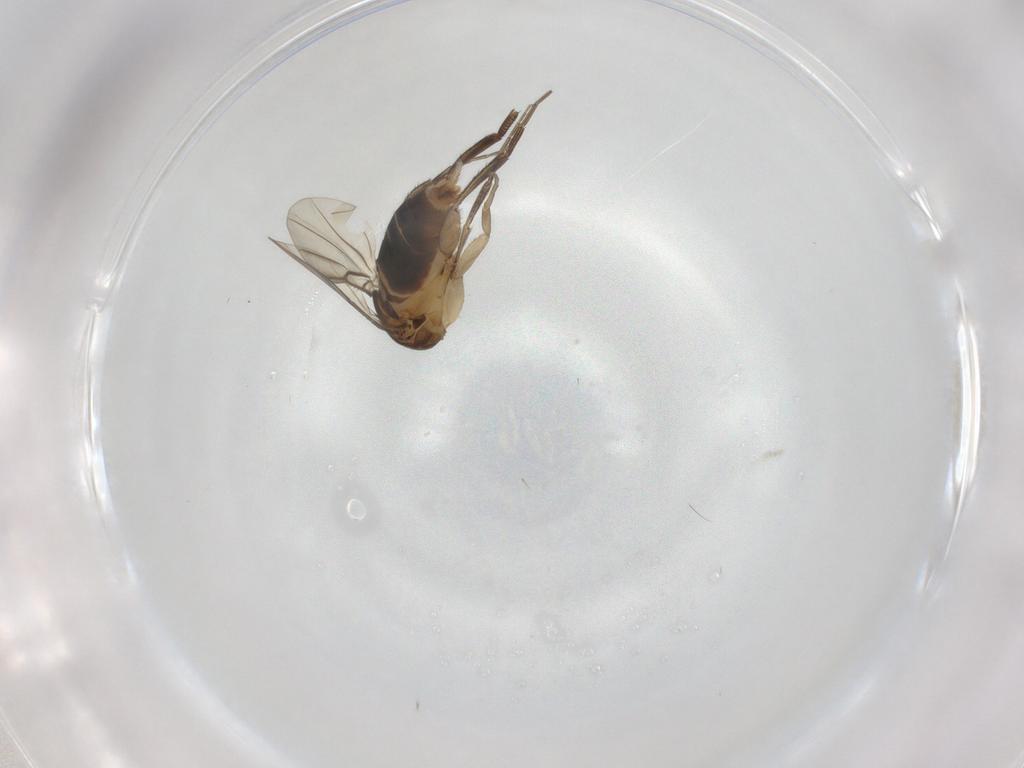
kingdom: Animalia
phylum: Arthropoda
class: Insecta
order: Diptera
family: Phoridae
